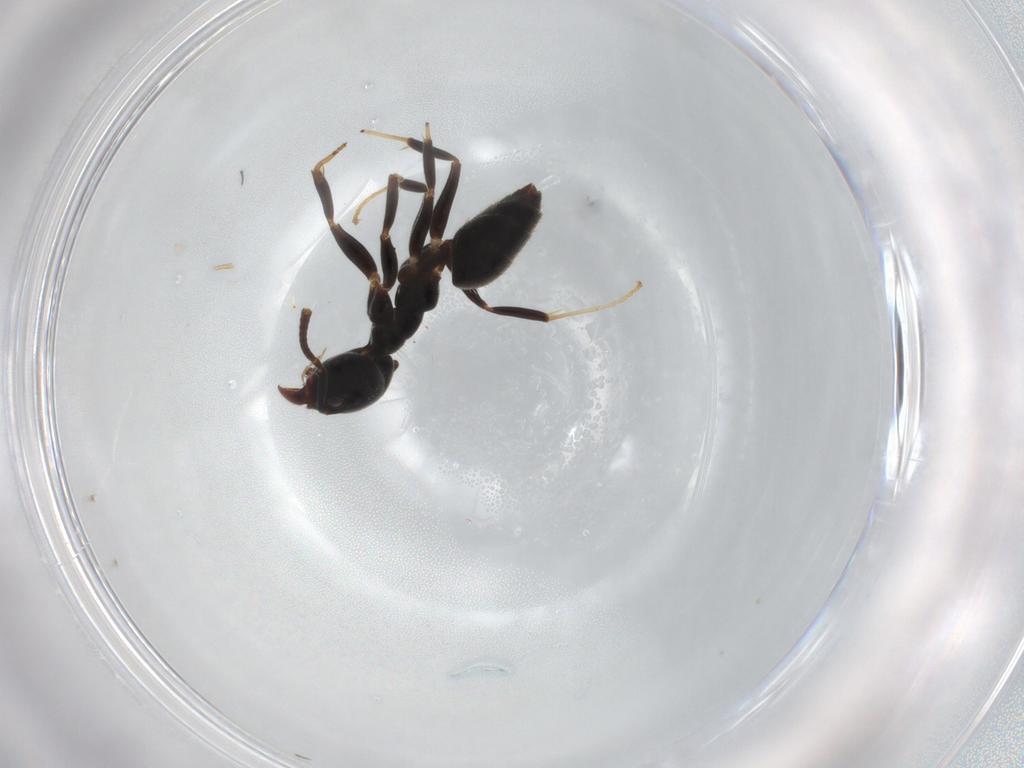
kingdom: Animalia
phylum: Arthropoda
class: Insecta
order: Hymenoptera
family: Formicidae
